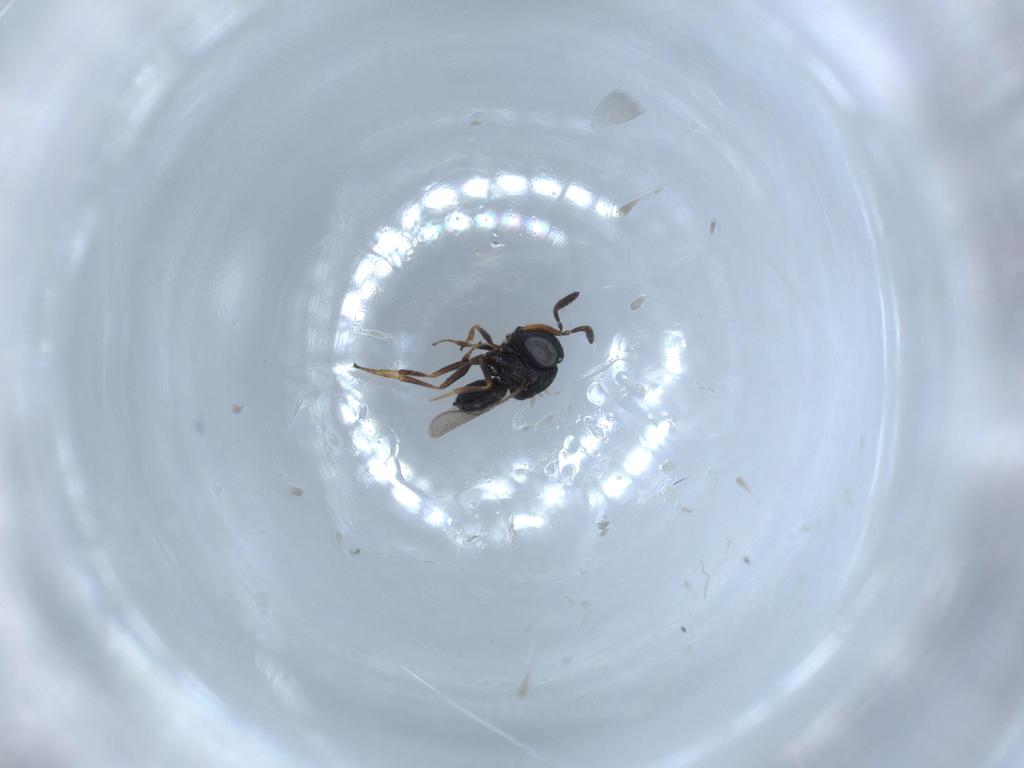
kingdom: Animalia
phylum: Arthropoda
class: Insecta
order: Hymenoptera
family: Scelionidae
